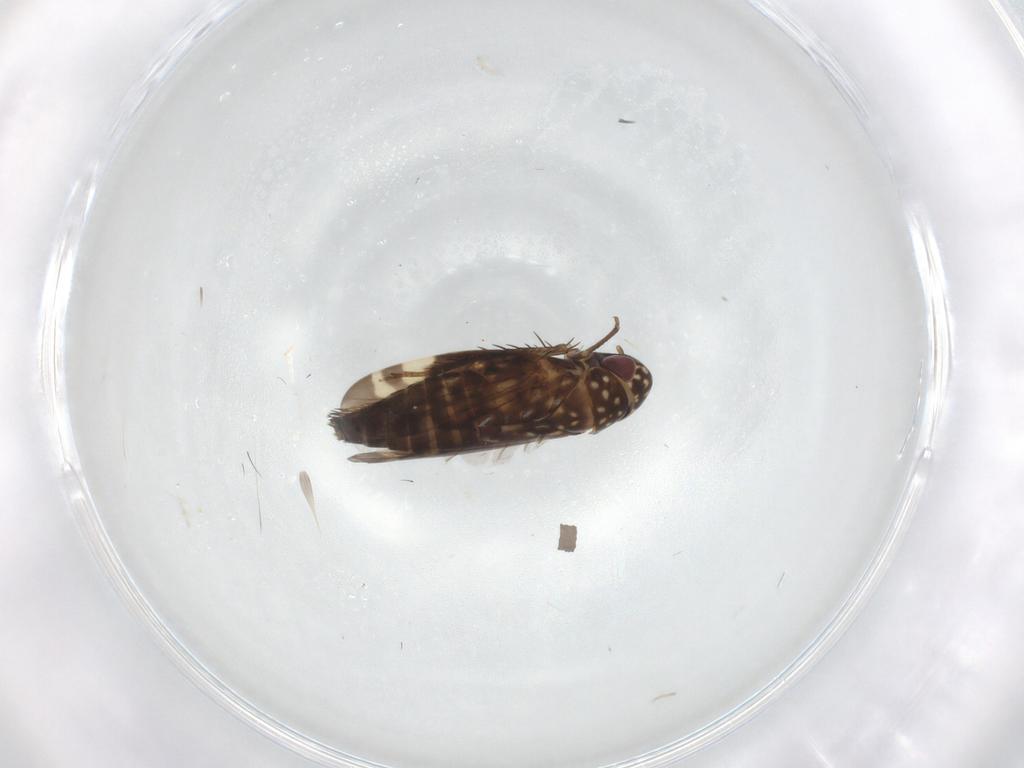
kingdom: Animalia
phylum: Arthropoda
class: Insecta
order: Hemiptera
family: Cicadellidae
